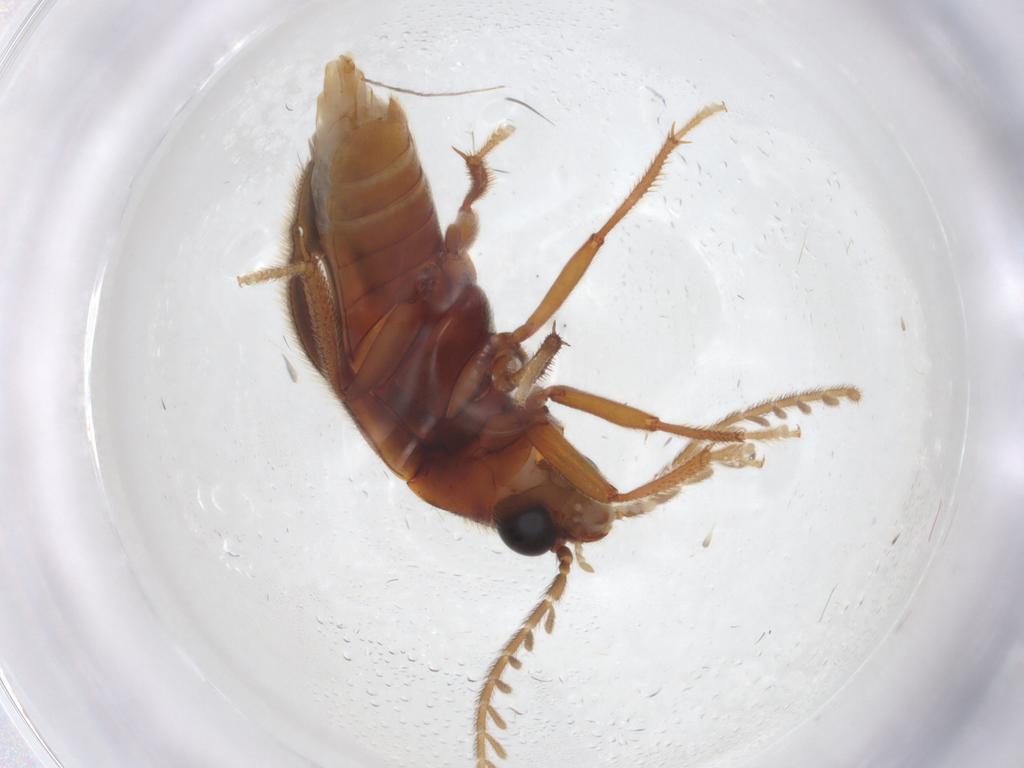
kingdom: Animalia
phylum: Arthropoda
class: Insecta
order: Coleoptera
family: Ptilodactylidae
